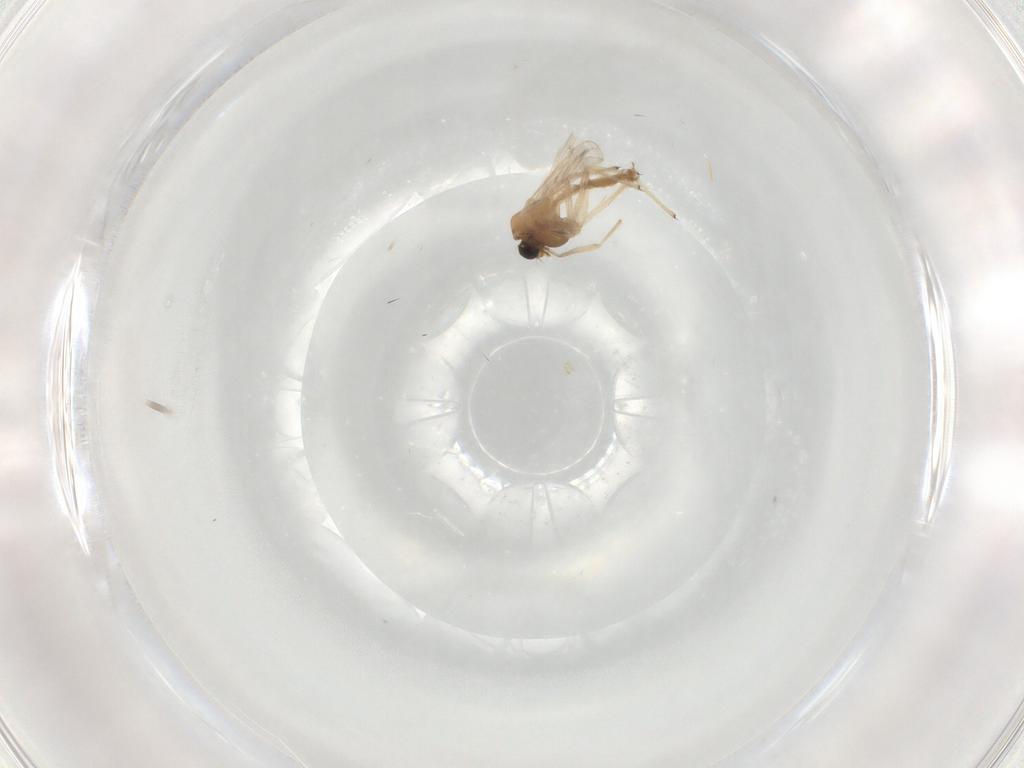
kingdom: Animalia
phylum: Arthropoda
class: Insecta
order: Diptera
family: Chironomidae
